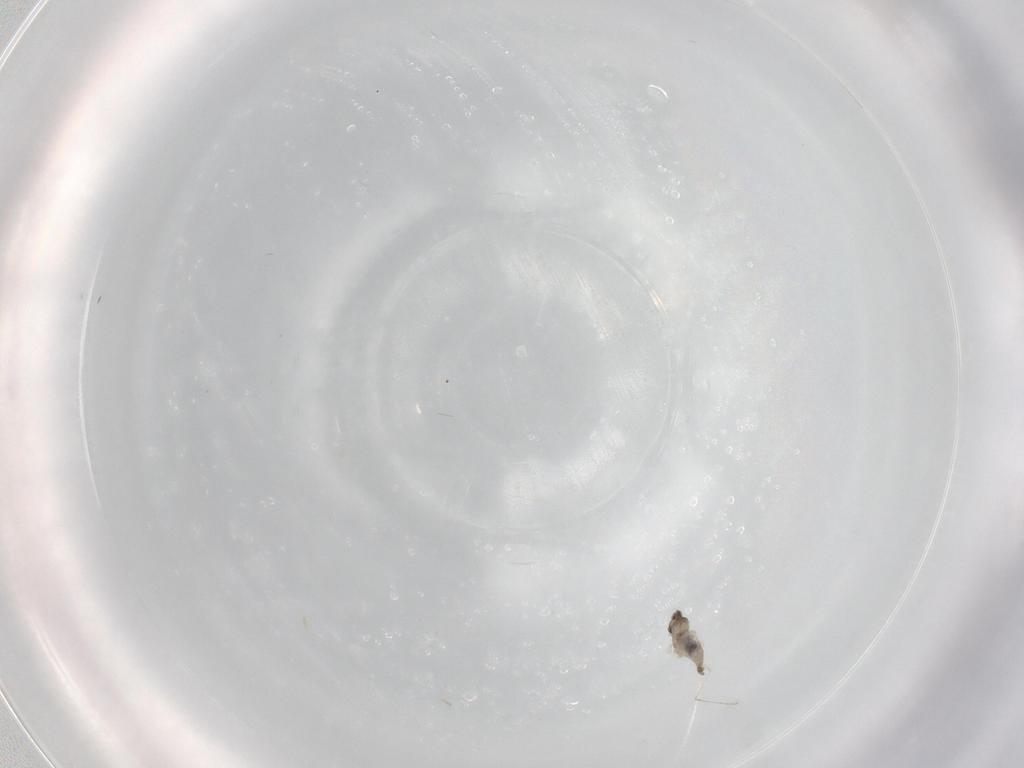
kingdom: Animalia
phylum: Arthropoda
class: Insecta
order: Diptera
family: Cecidomyiidae
